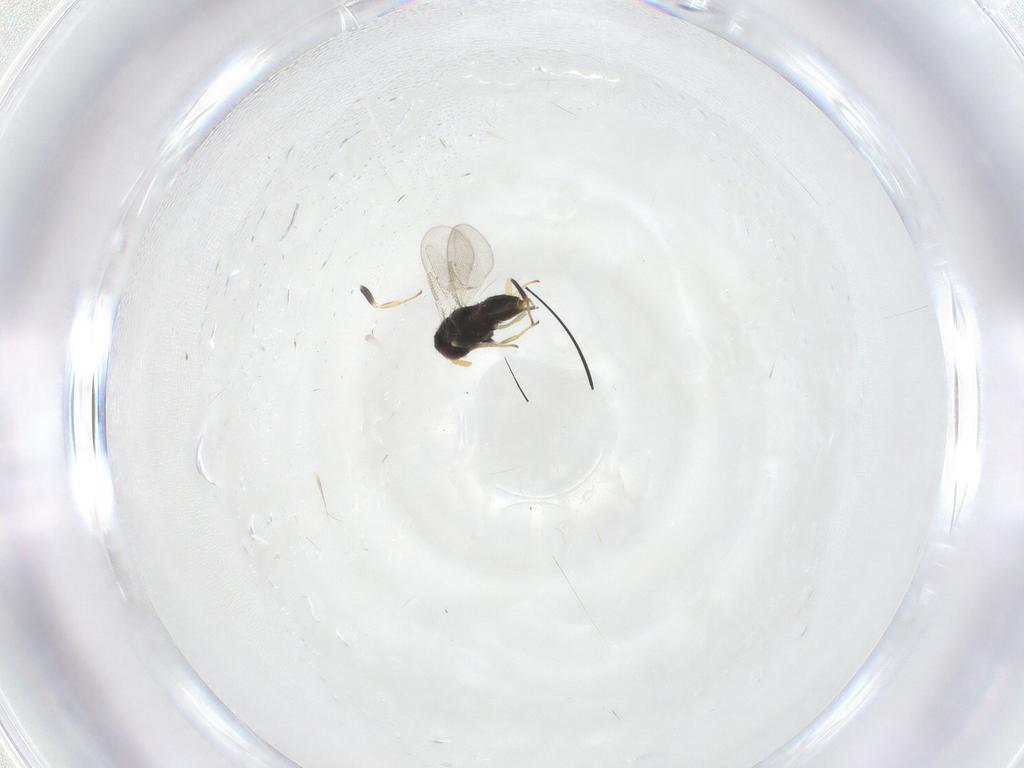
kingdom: Animalia
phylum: Arthropoda
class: Insecta
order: Hymenoptera
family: Aphelinidae
